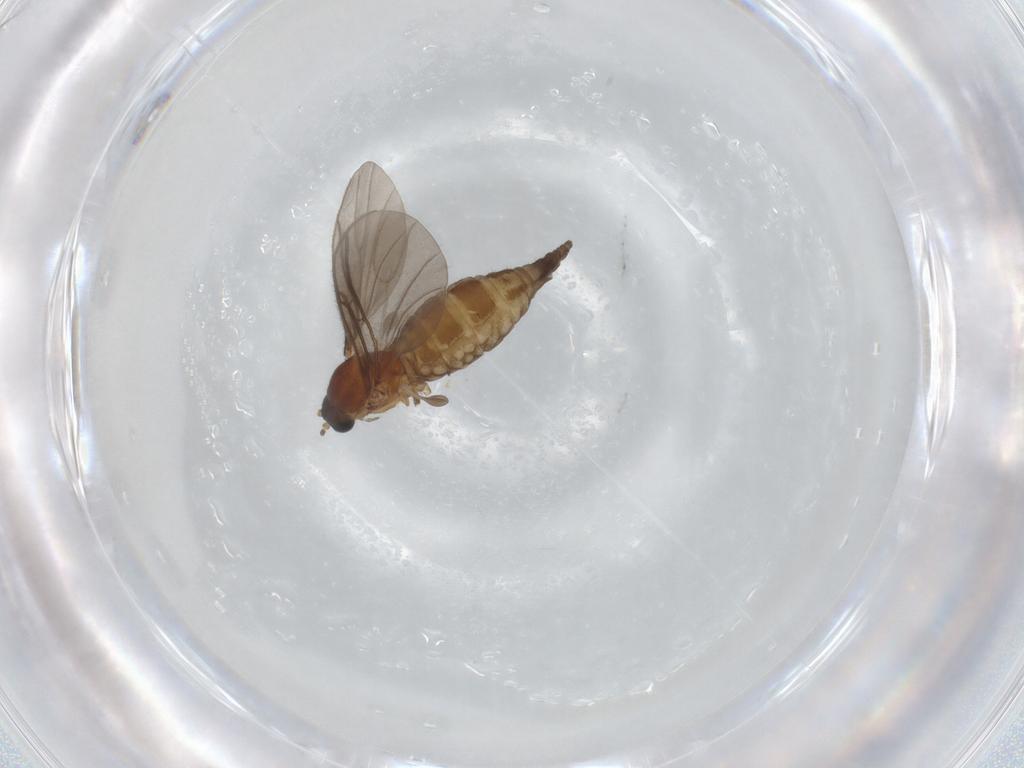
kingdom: Animalia
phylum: Arthropoda
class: Insecta
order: Diptera
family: Sciaridae
